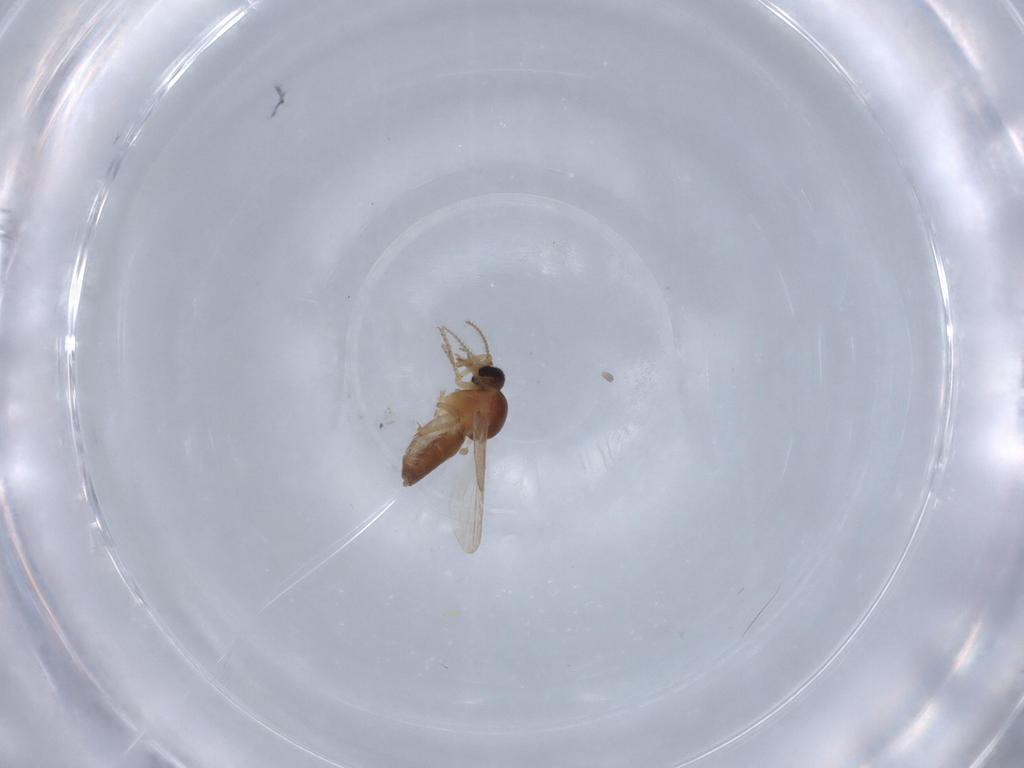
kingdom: Animalia
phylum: Arthropoda
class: Insecta
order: Diptera
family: Ceratopogonidae
